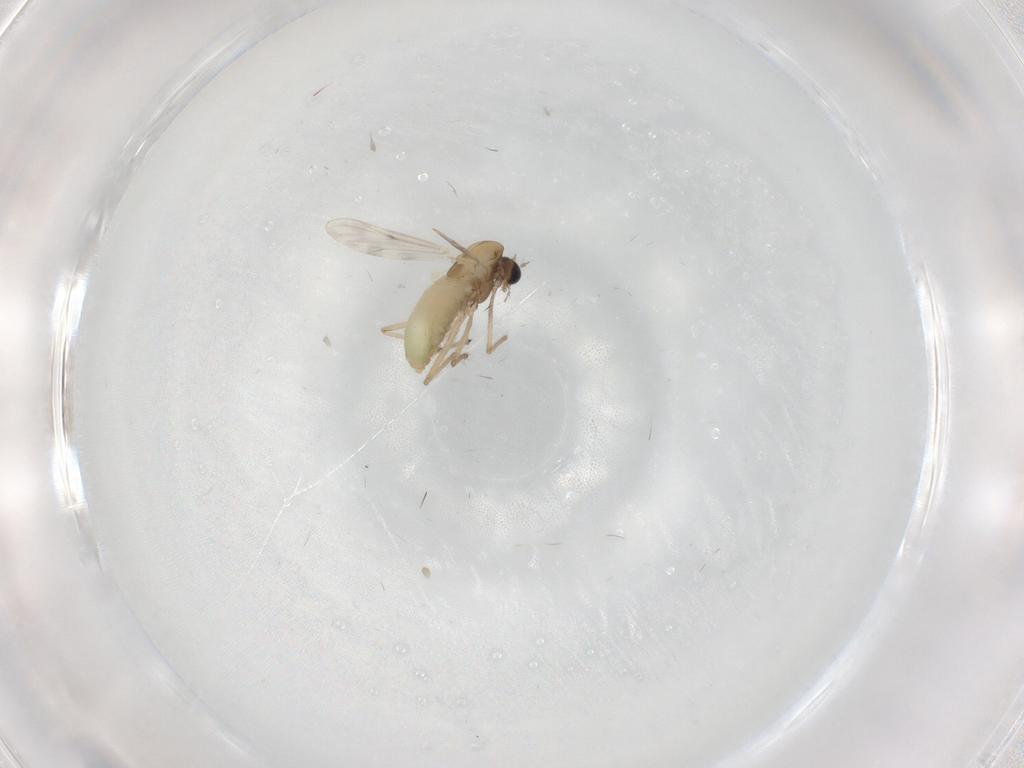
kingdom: Animalia
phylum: Arthropoda
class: Insecta
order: Diptera
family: Chironomidae
